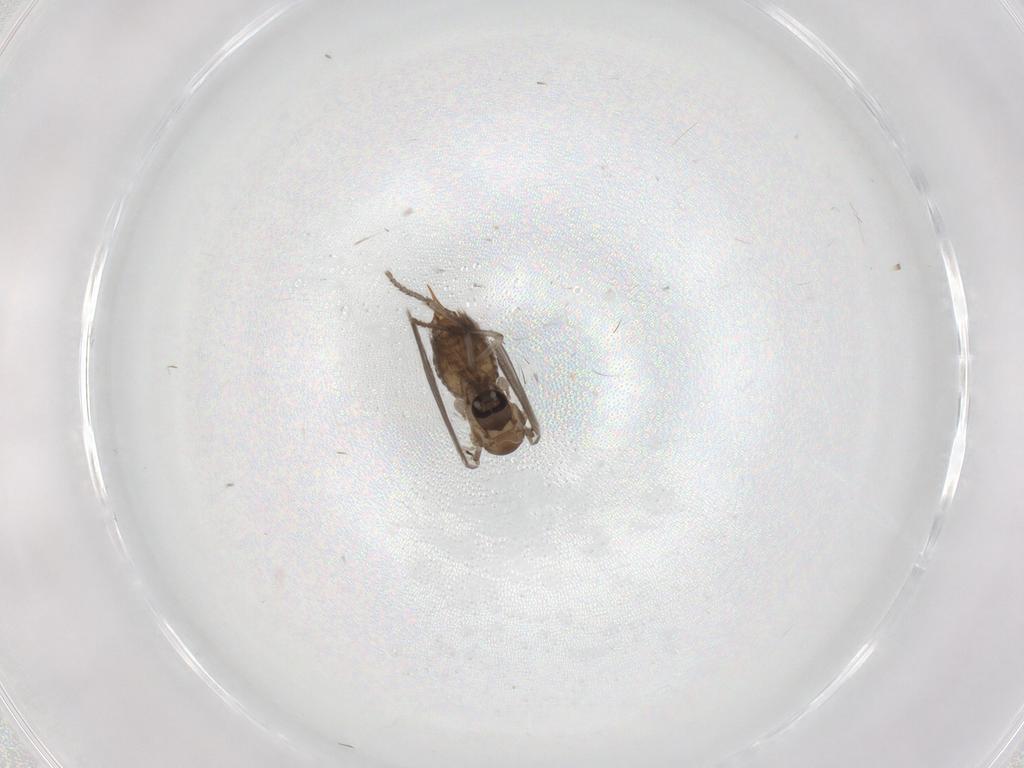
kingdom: Animalia
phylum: Arthropoda
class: Insecta
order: Diptera
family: Psychodidae
